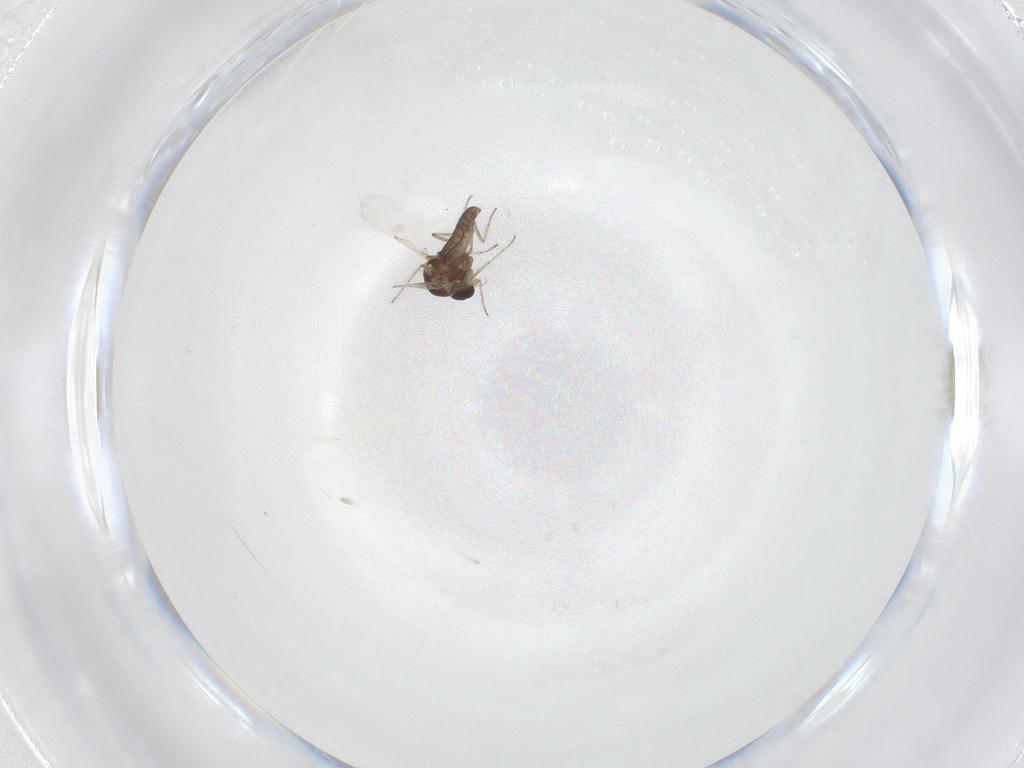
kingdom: Animalia
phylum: Arthropoda
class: Insecta
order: Diptera
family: Chloropidae
